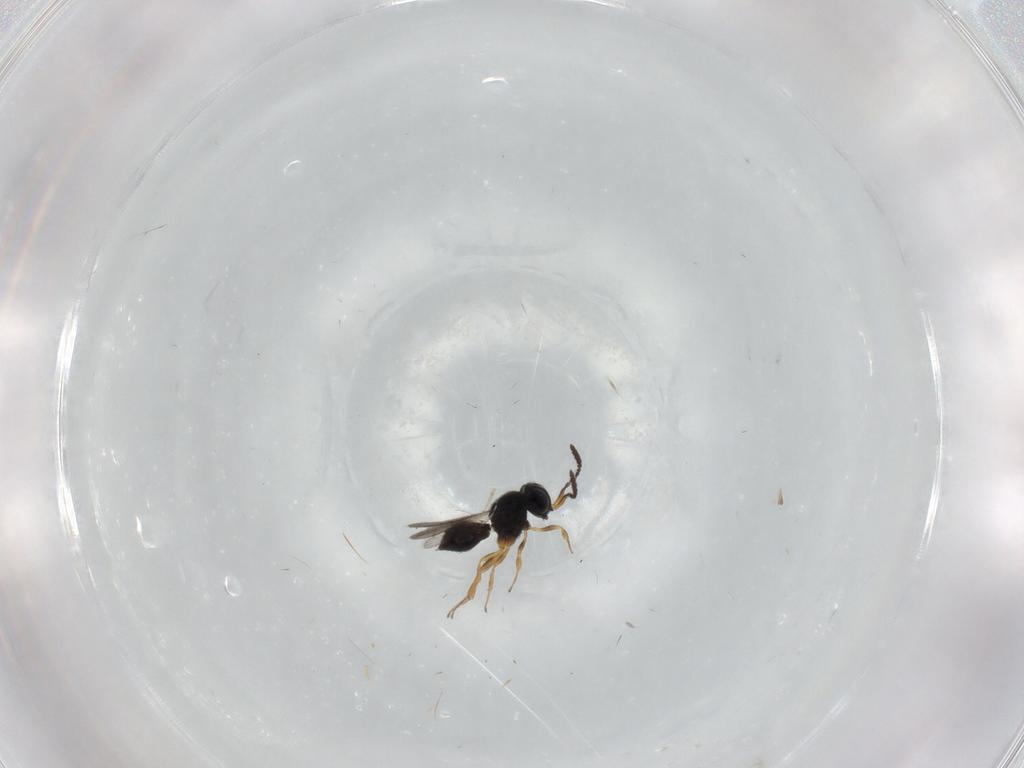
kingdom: Animalia
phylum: Arthropoda
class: Insecta
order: Hymenoptera
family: Scelionidae
